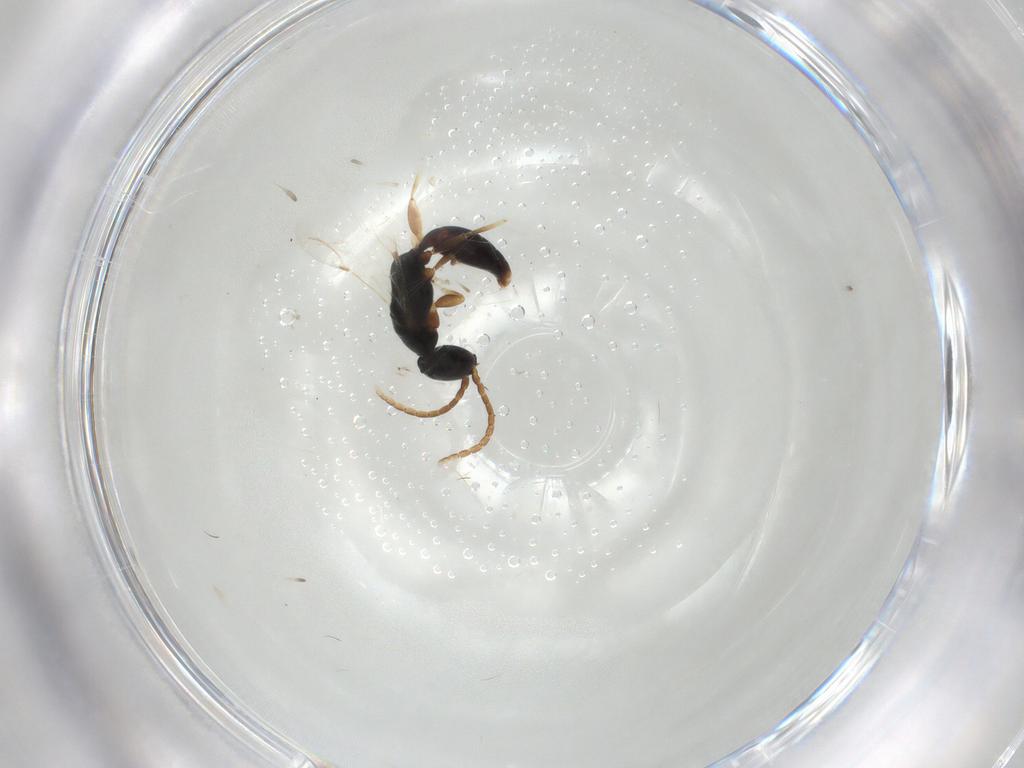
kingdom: Animalia
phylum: Arthropoda
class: Insecta
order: Hymenoptera
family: Bethylidae
